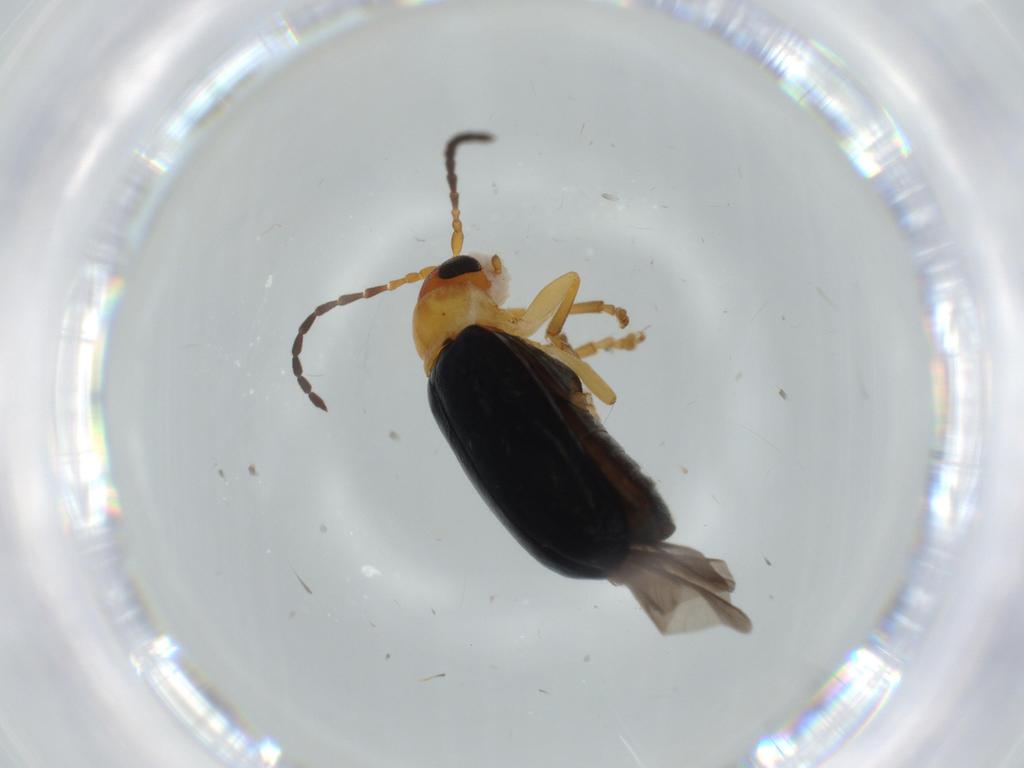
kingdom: Animalia
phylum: Arthropoda
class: Insecta
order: Coleoptera
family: Chrysomelidae
